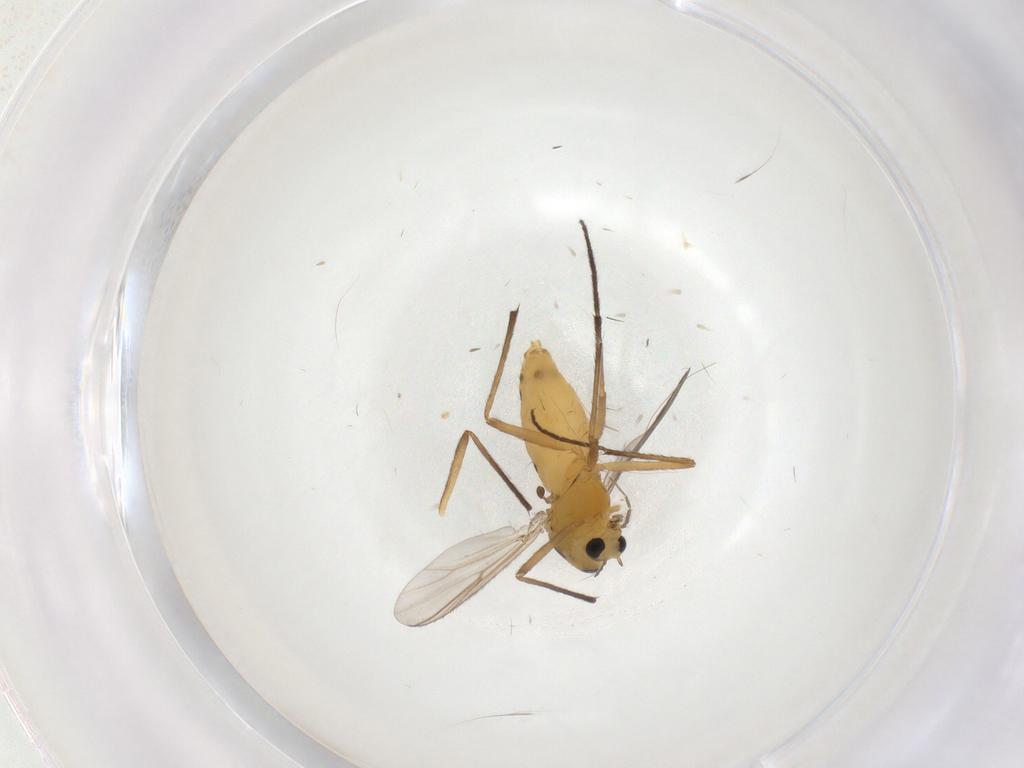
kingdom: Animalia
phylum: Arthropoda
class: Insecta
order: Diptera
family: Chironomidae
